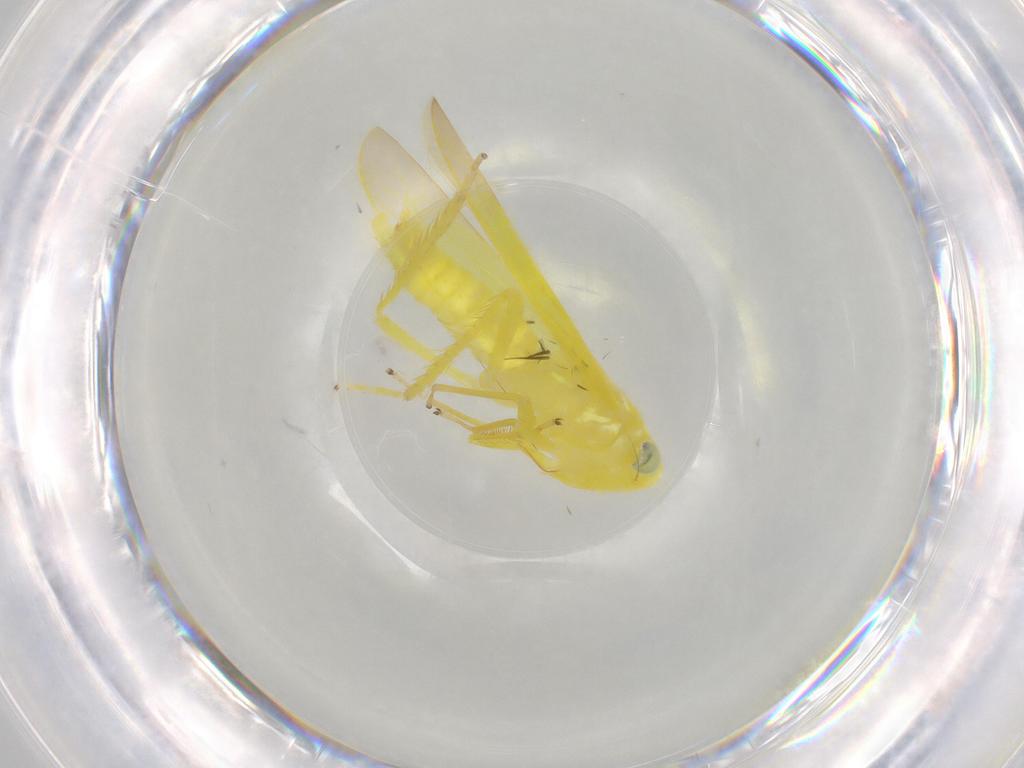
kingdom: Animalia
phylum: Arthropoda
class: Insecta
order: Hemiptera
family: Cicadellidae
